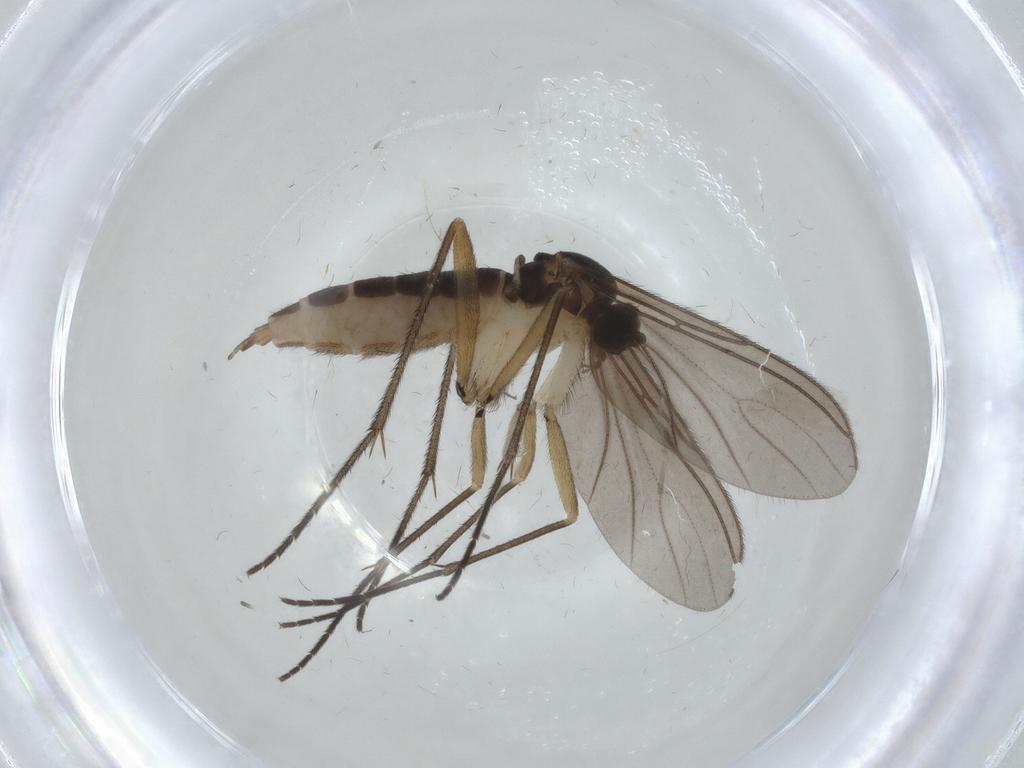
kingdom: Animalia
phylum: Arthropoda
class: Insecta
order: Diptera
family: Sciaridae
